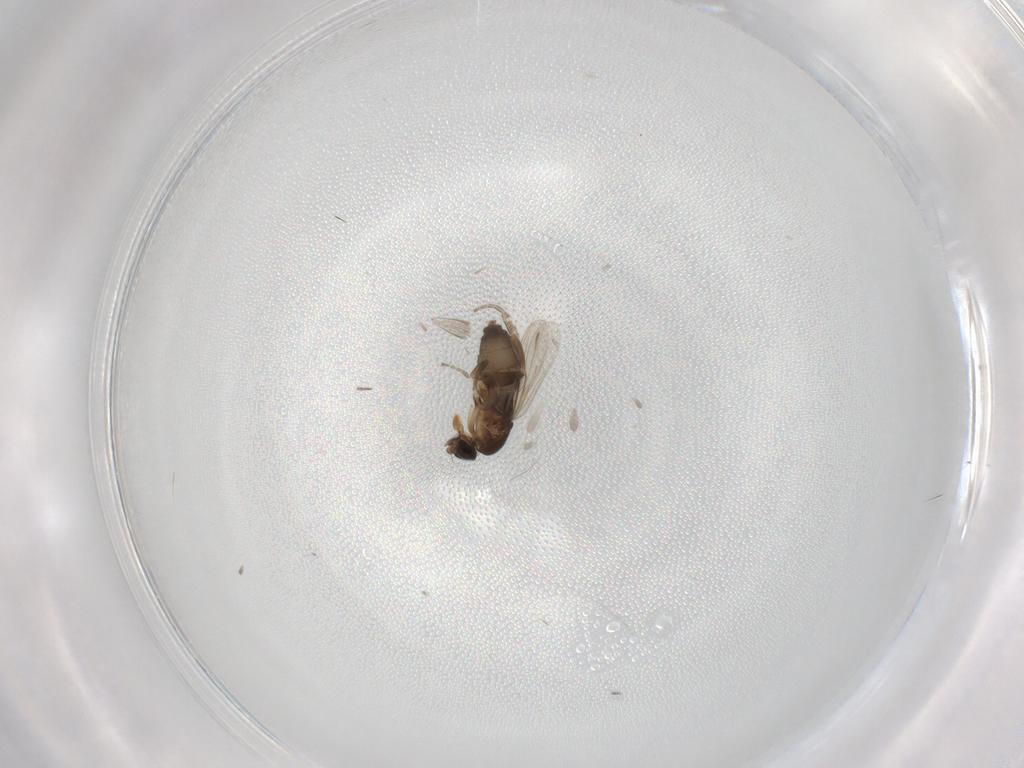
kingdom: Animalia
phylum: Arthropoda
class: Insecta
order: Diptera
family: Phoridae
